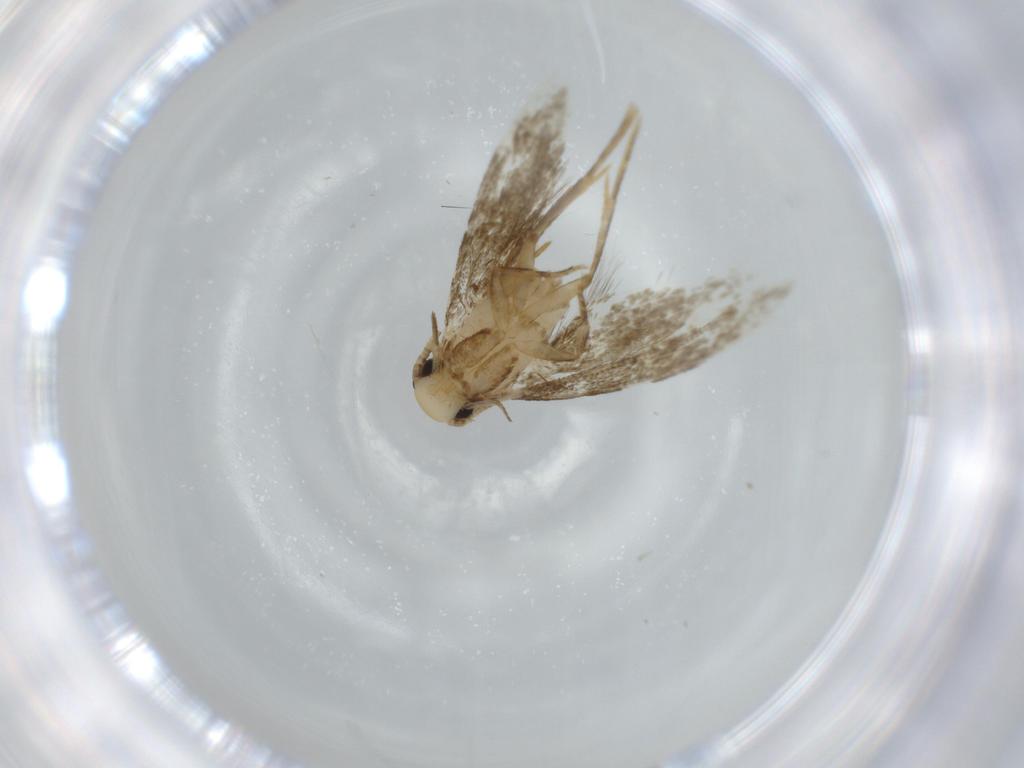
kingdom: Animalia
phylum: Arthropoda
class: Insecta
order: Lepidoptera
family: Tineidae
